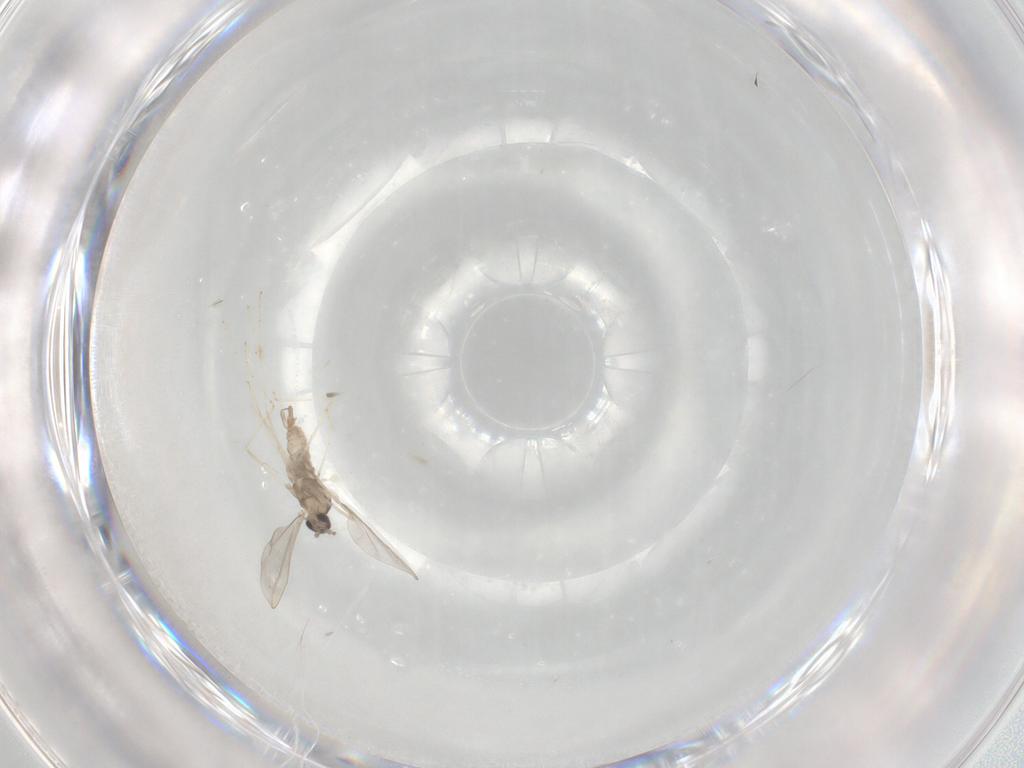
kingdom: Animalia
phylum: Arthropoda
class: Insecta
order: Diptera
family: Cecidomyiidae
